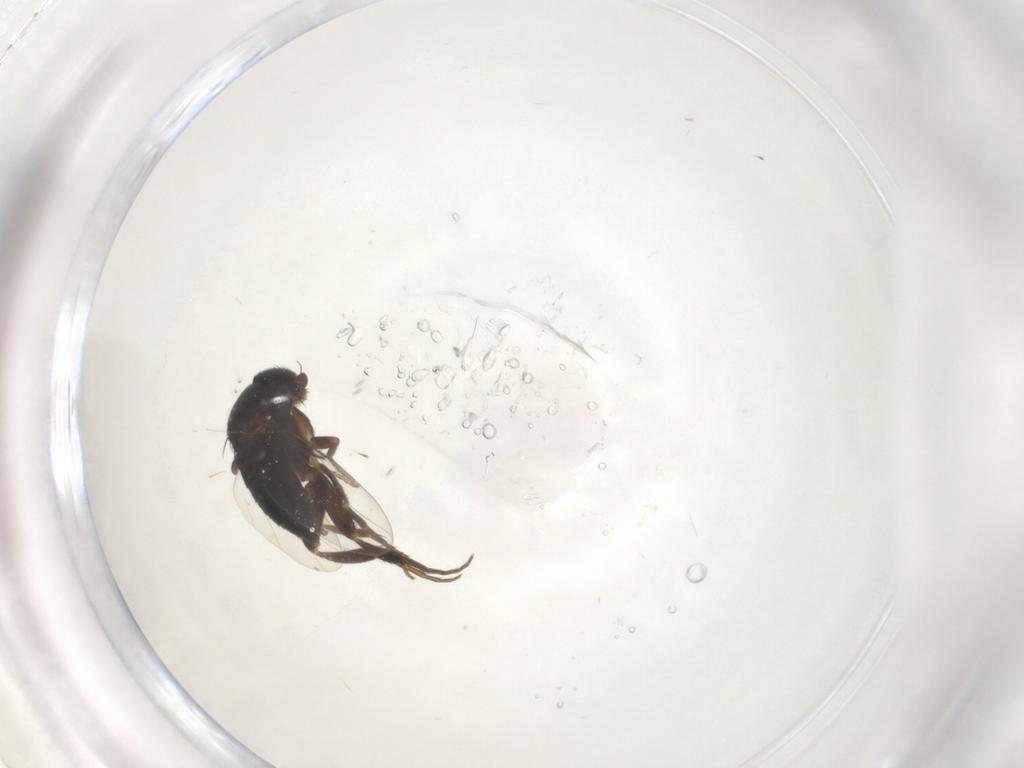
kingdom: Animalia
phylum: Arthropoda
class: Insecta
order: Diptera
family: Phoridae
